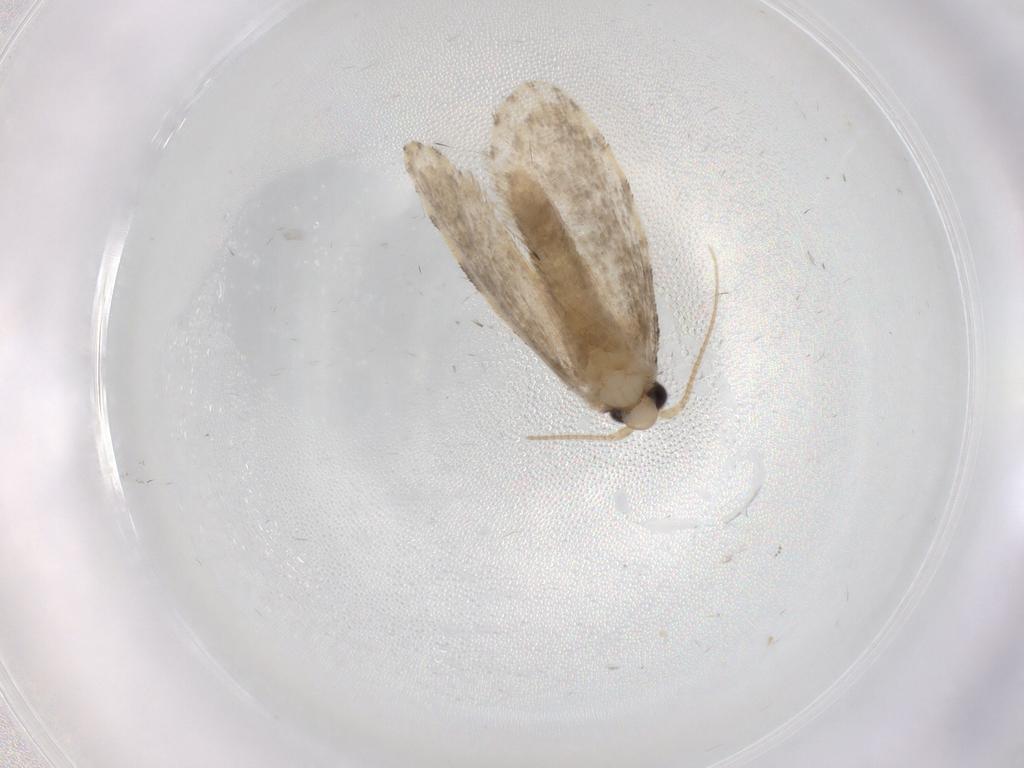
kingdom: Animalia
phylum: Arthropoda
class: Insecta
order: Lepidoptera
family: Psychidae
